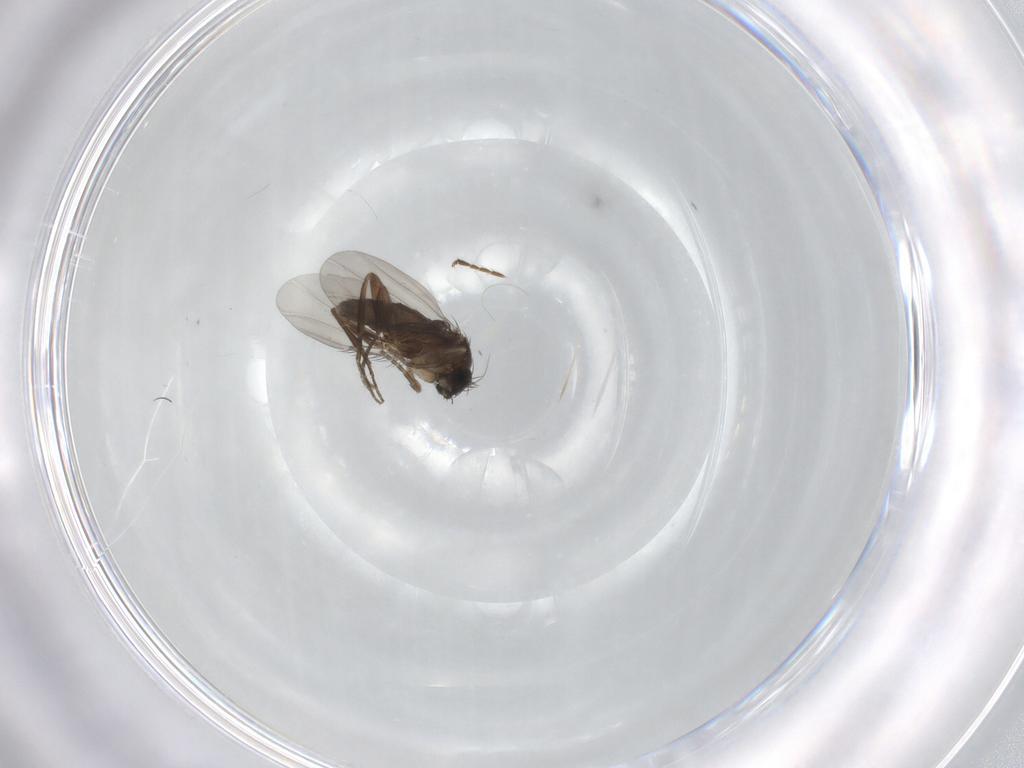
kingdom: Animalia
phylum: Arthropoda
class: Insecta
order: Diptera
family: Phoridae
